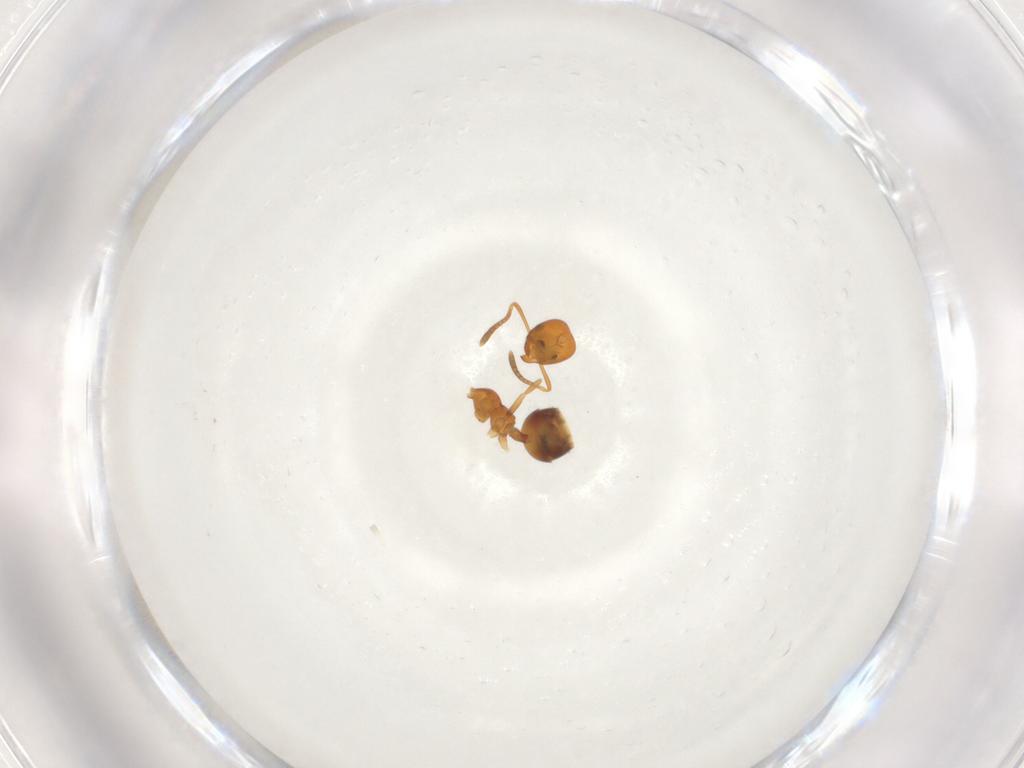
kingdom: Animalia
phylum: Arthropoda
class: Insecta
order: Hymenoptera
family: Formicidae
